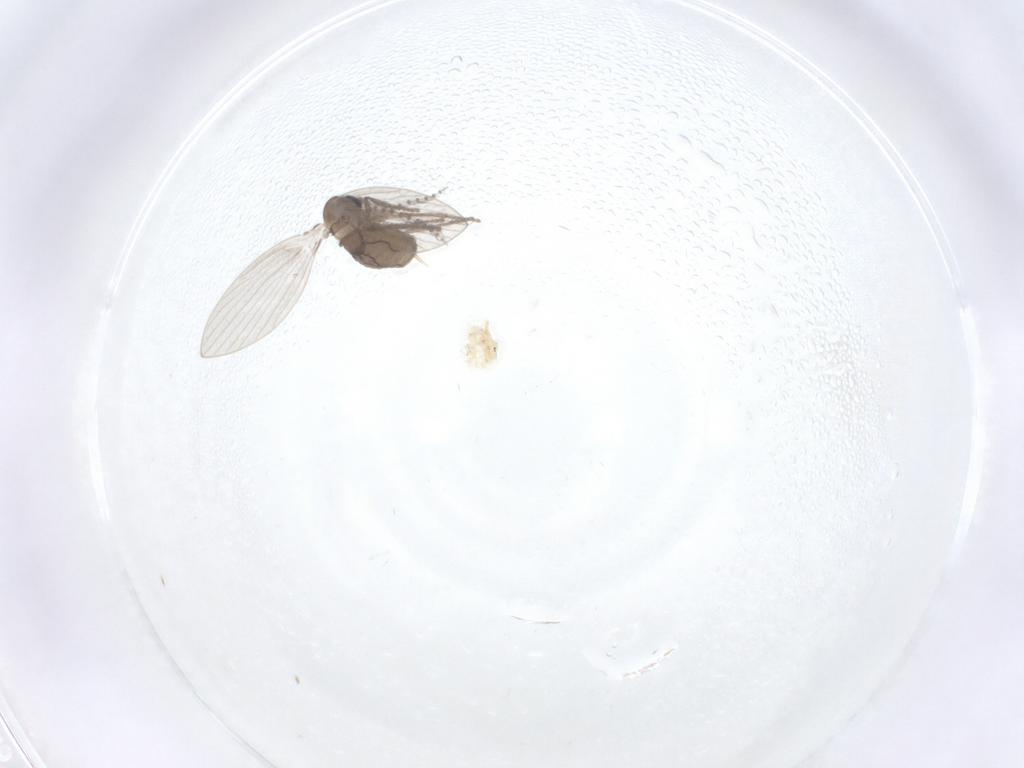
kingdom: Animalia
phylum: Arthropoda
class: Insecta
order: Diptera
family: Psychodidae
